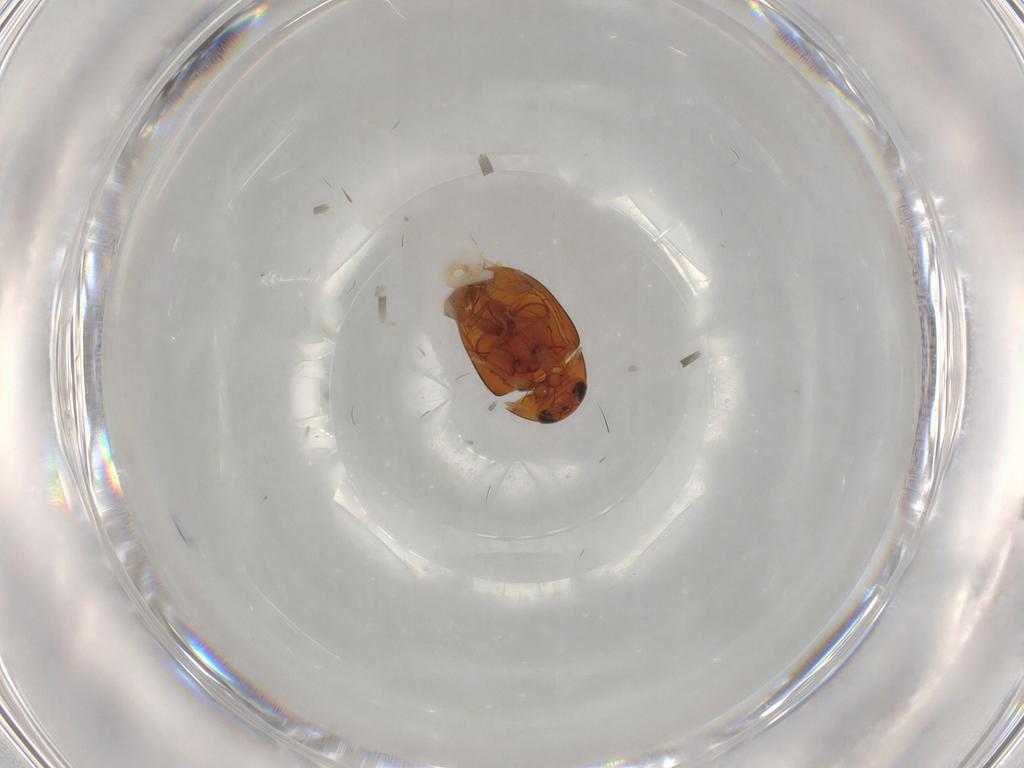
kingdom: Animalia
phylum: Arthropoda
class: Insecta
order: Coleoptera
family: Phalacridae
